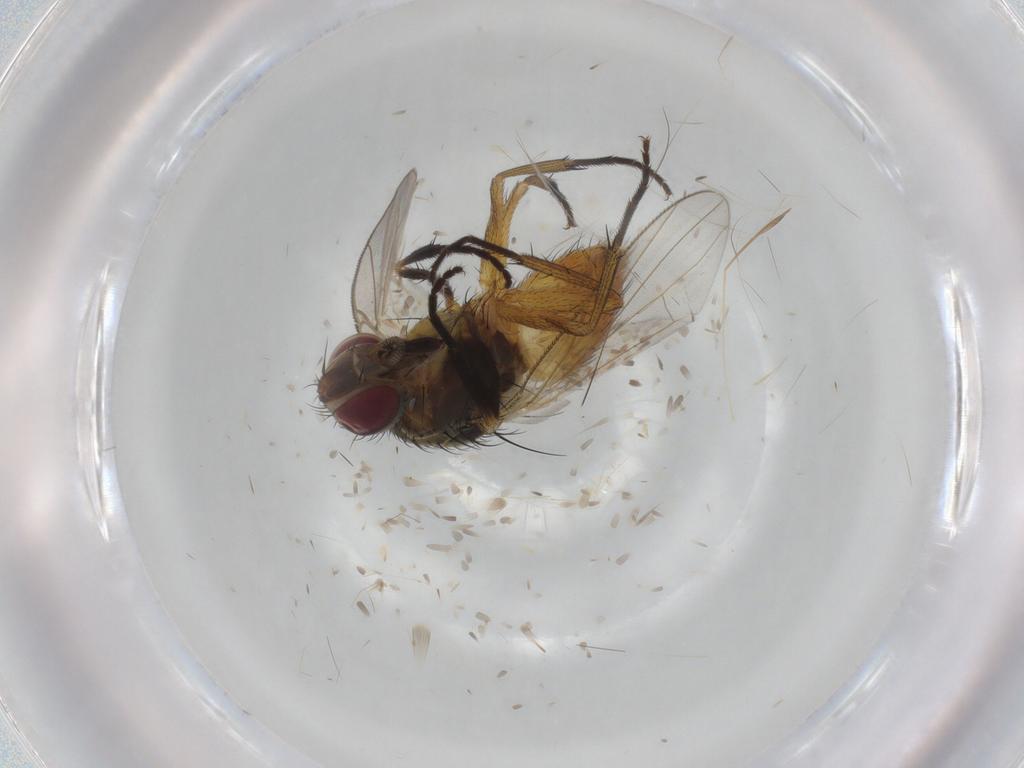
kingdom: Animalia
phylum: Arthropoda
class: Insecta
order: Diptera
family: Muscidae
